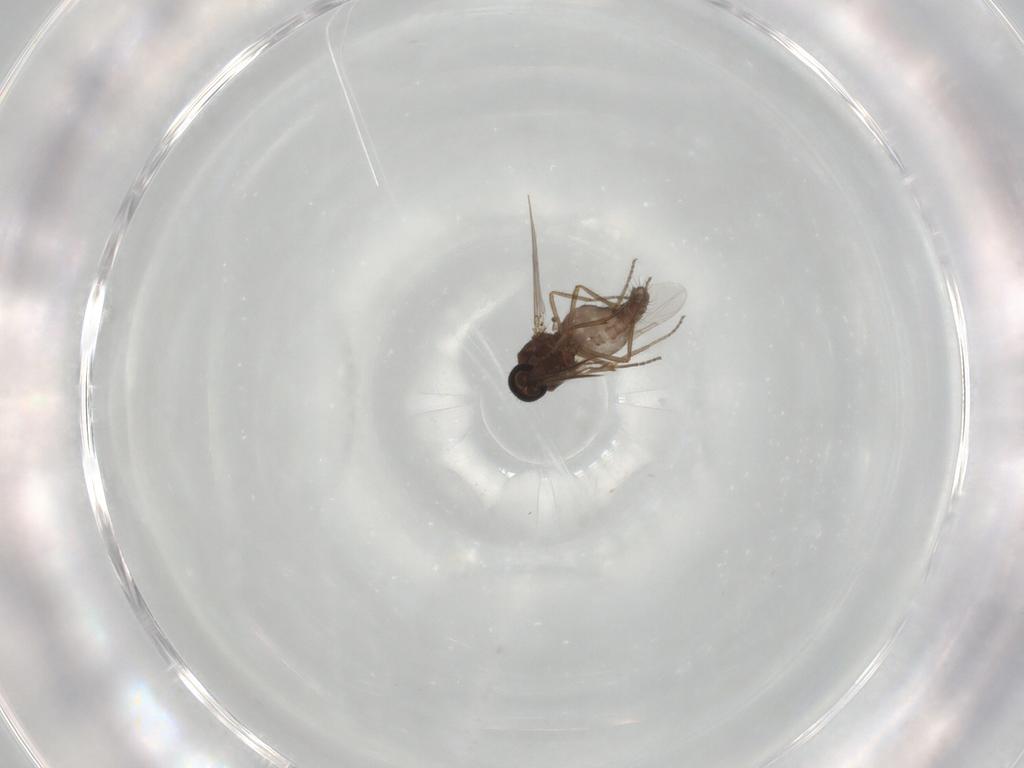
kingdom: Animalia
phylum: Arthropoda
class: Insecta
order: Diptera
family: Ceratopogonidae
